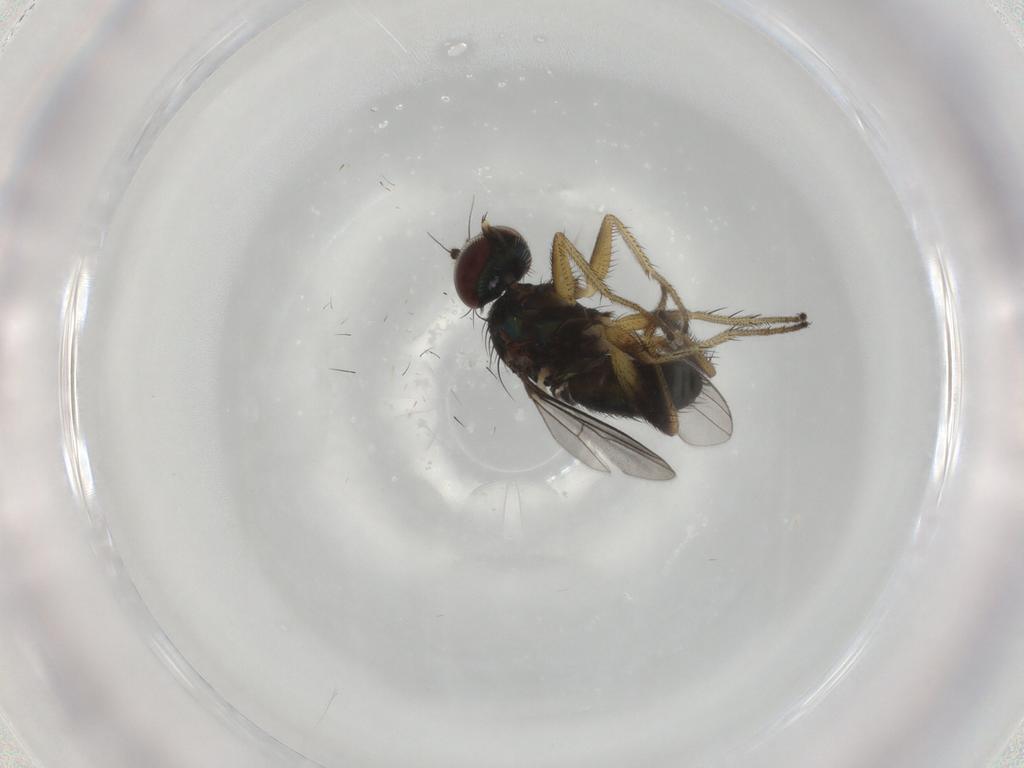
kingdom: Animalia
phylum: Arthropoda
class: Insecta
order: Diptera
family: Dolichopodidae
